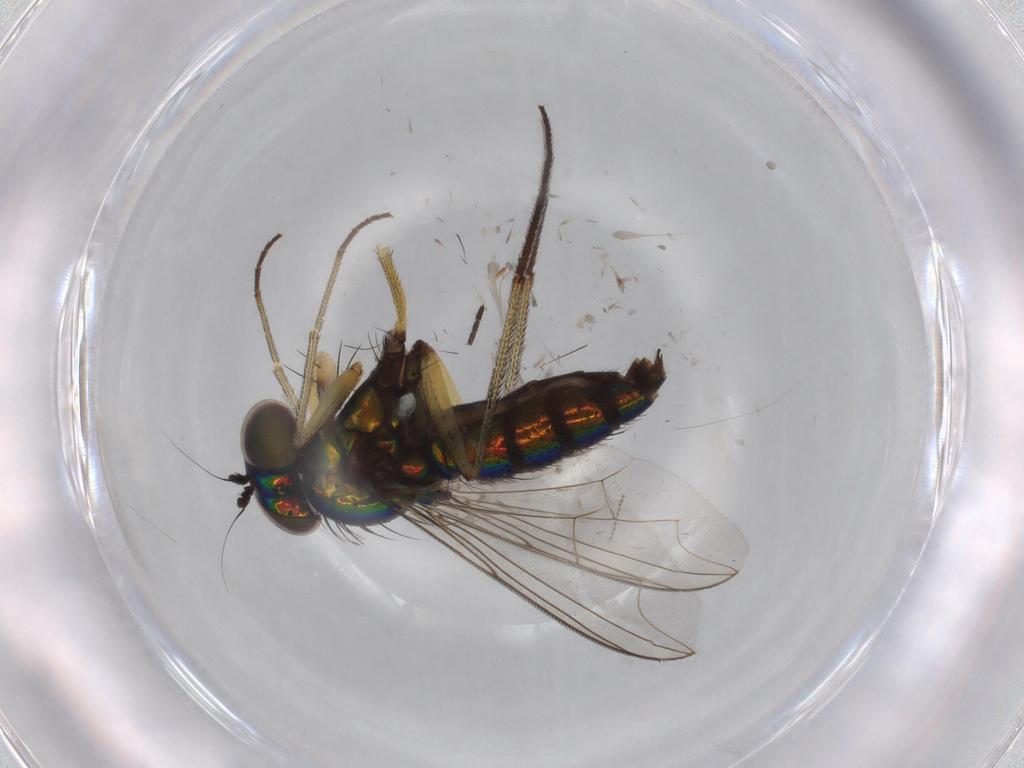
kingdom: Animalia
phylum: Arthropoda
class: Insecta
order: Diptera
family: Dolichopodidae
